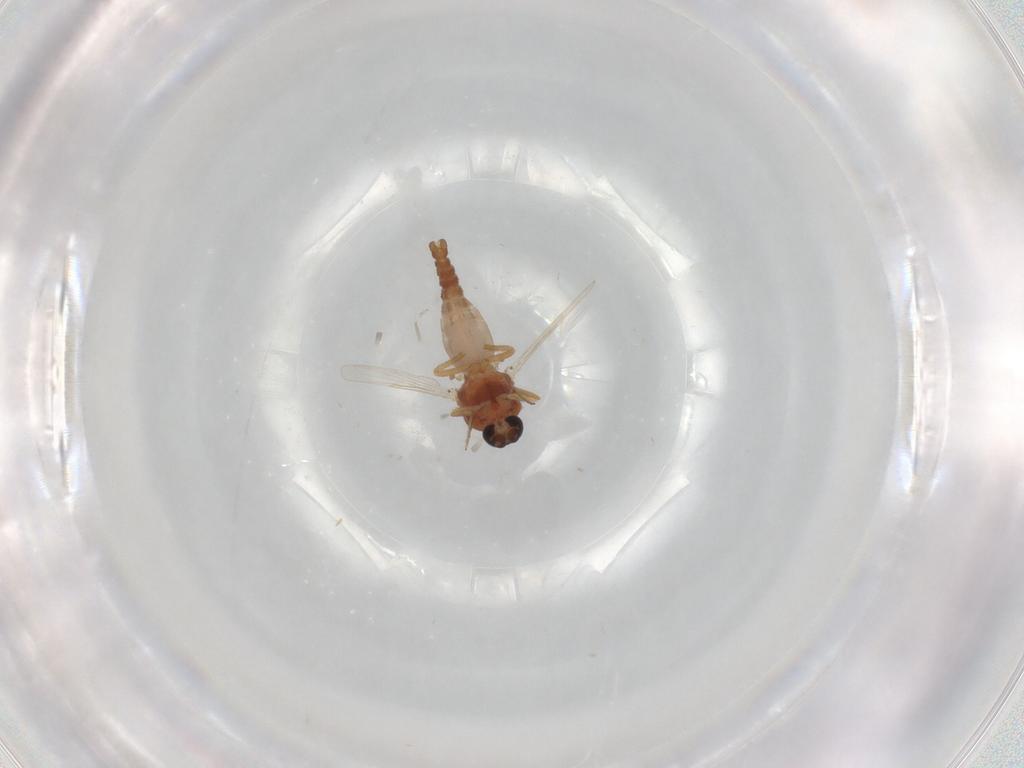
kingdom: Animalia
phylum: Arthropoda
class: Insecta
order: Diptera
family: Ceratopogonidae
